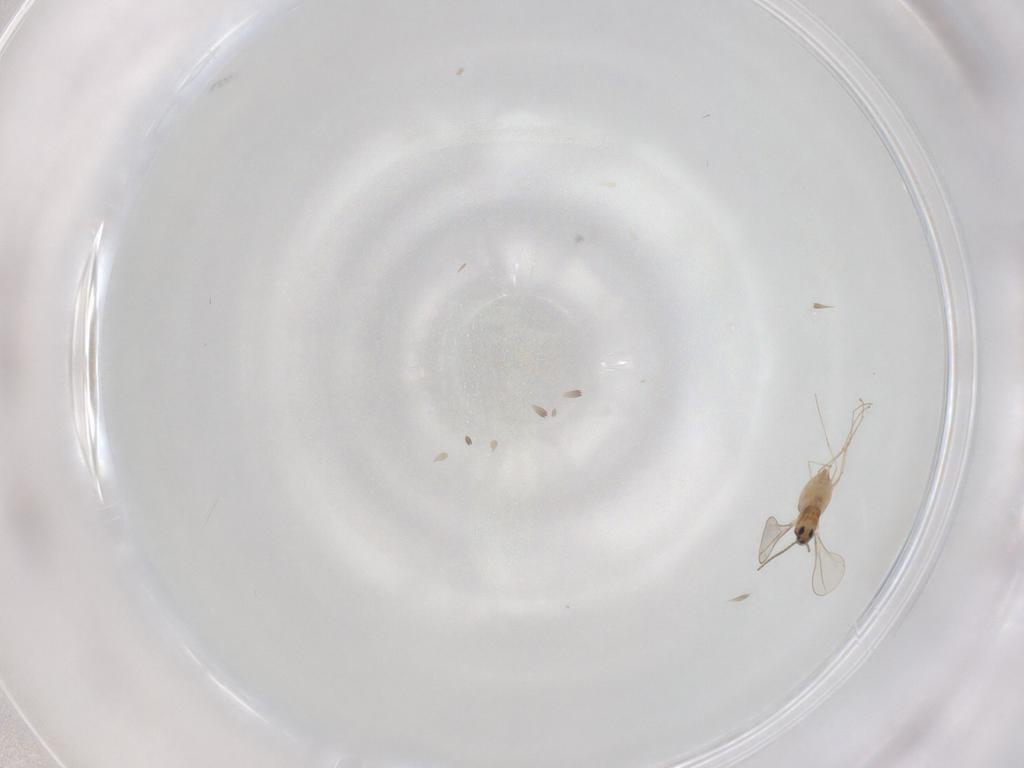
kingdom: Animalia
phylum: Arthropoda
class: Insecta
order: Diptera
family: Cecidomyiidae
